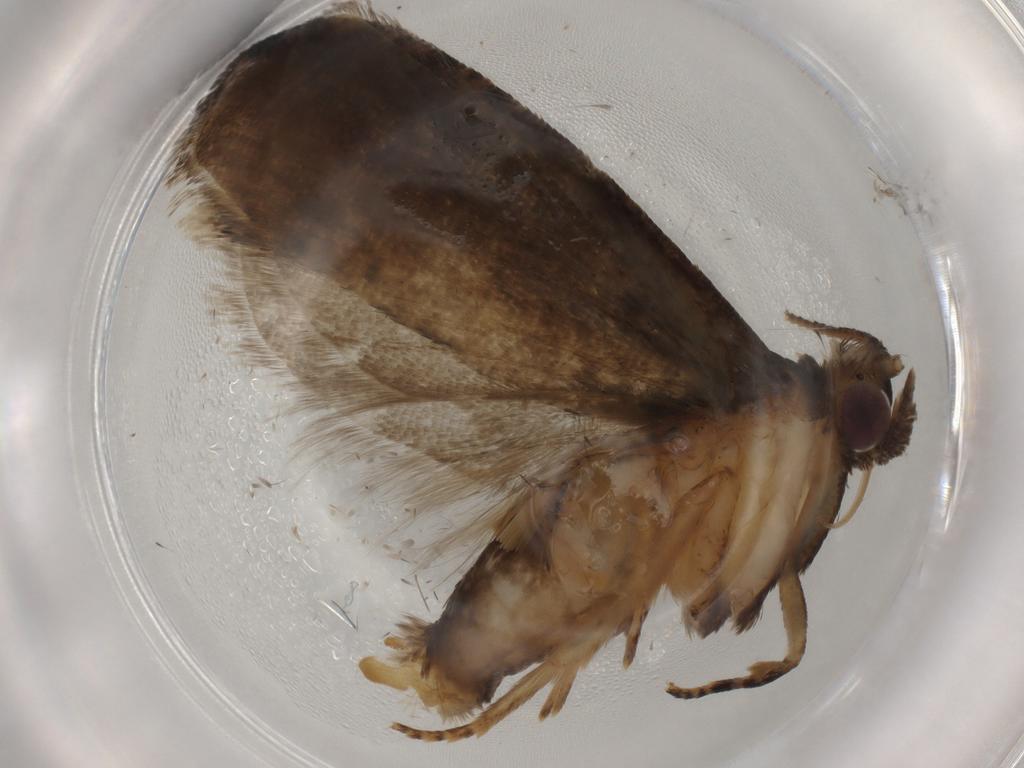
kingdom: Animalia
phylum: Arthropoda
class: Insecta
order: Lepidoptera
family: Tortricidae
